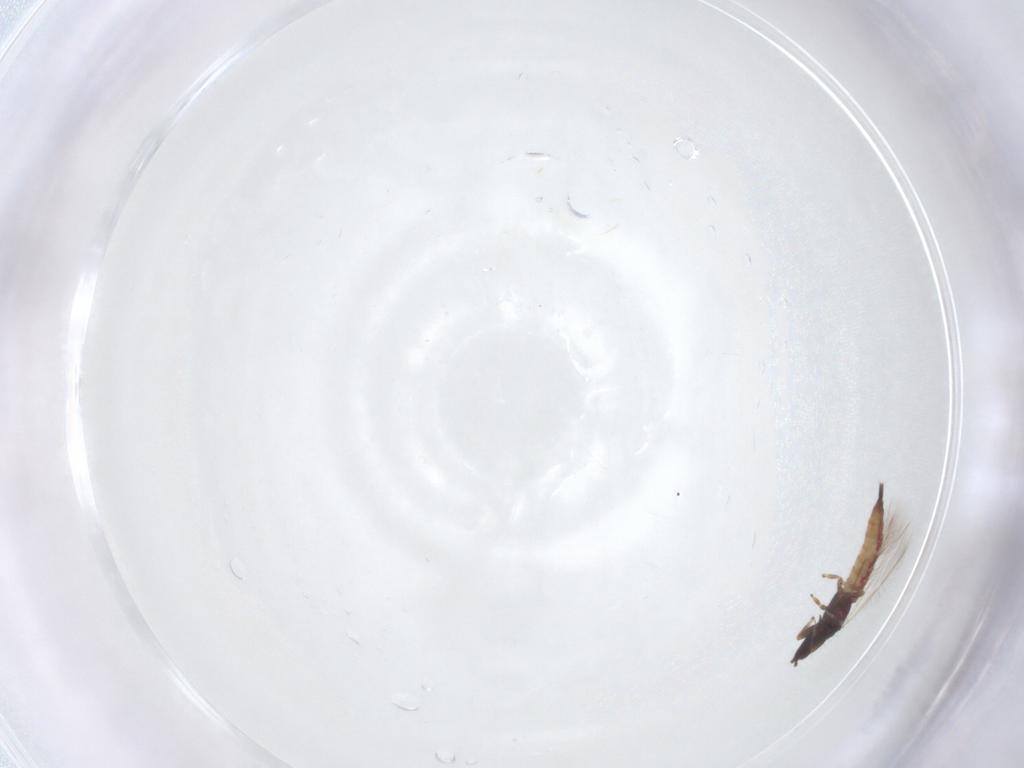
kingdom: Animalia
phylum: Arthropoda
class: Insecta
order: Thysanoptera
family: Phlaeothripidae
